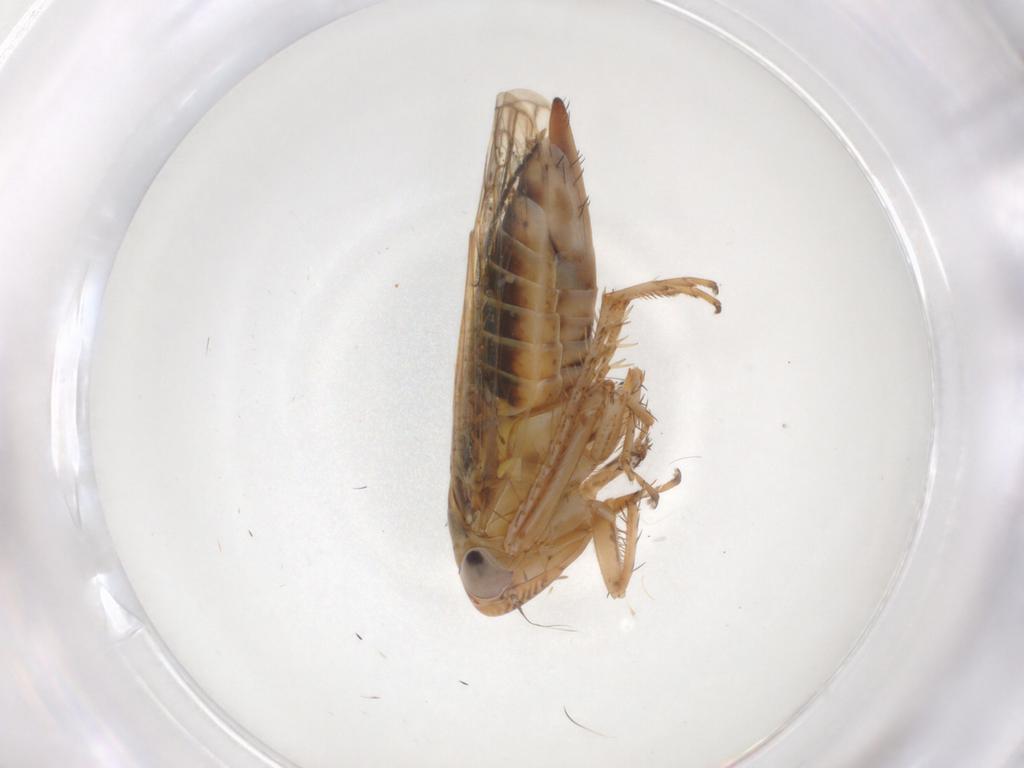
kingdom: Animalia
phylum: Arthropoda
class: Insecta
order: Hemiptera
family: Cicadellidae
